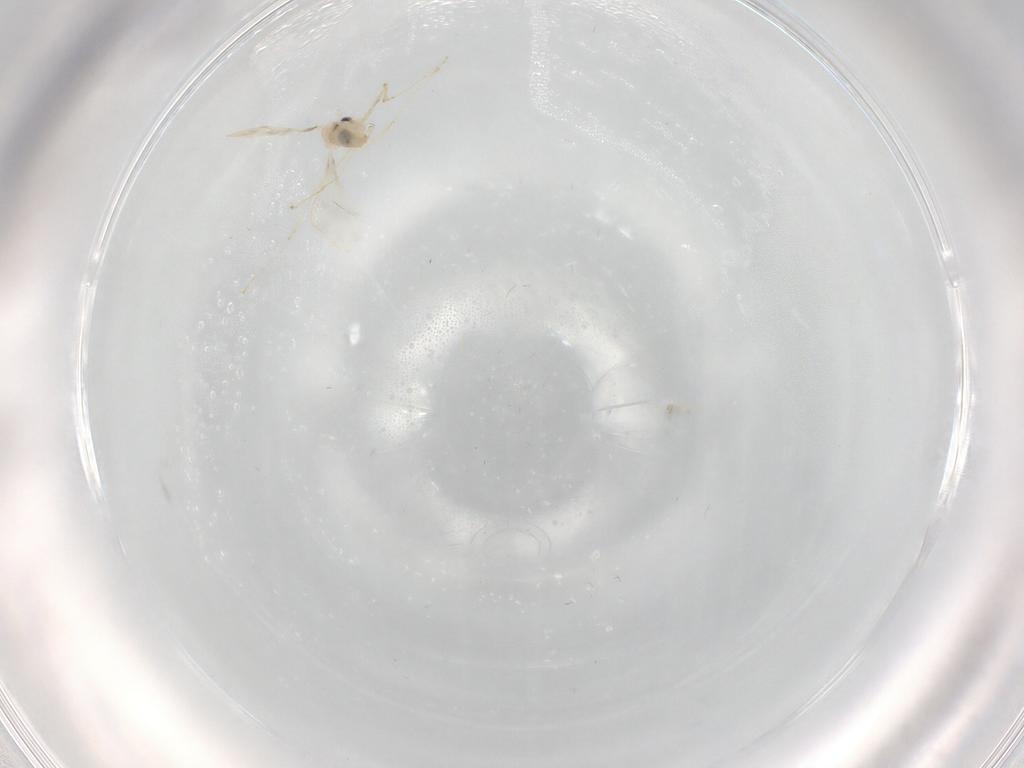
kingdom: Animalia
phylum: Arthropoda
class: Insecta
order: Diptera
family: Cecidomyiidae
